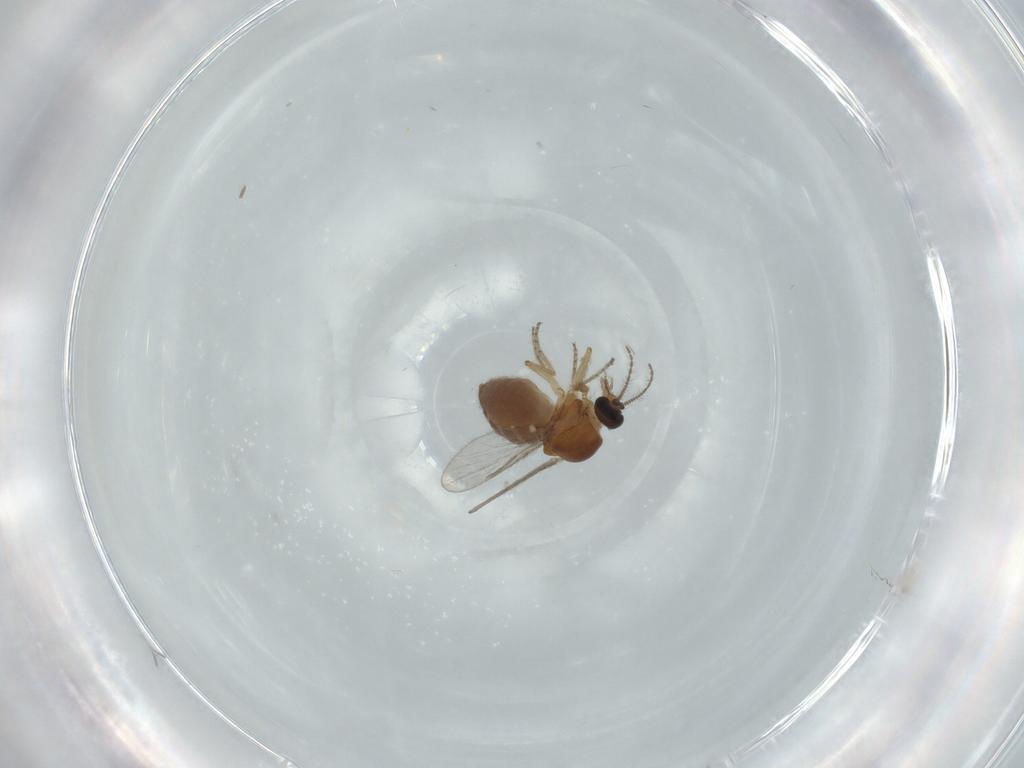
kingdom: Animalia
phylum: Arthropoda
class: Insecta
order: Diptera
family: Ceratopogonidae
